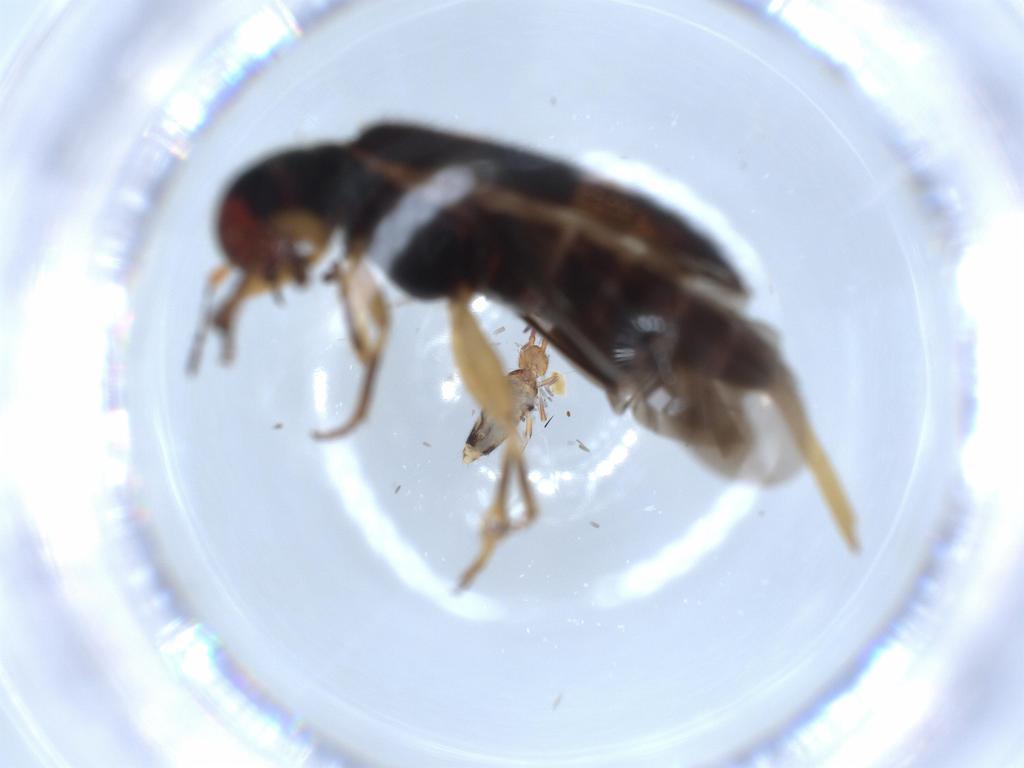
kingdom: Animalia
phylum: Arthropoda
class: Collembola
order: Entomobryomorpha
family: Entomobryidae
